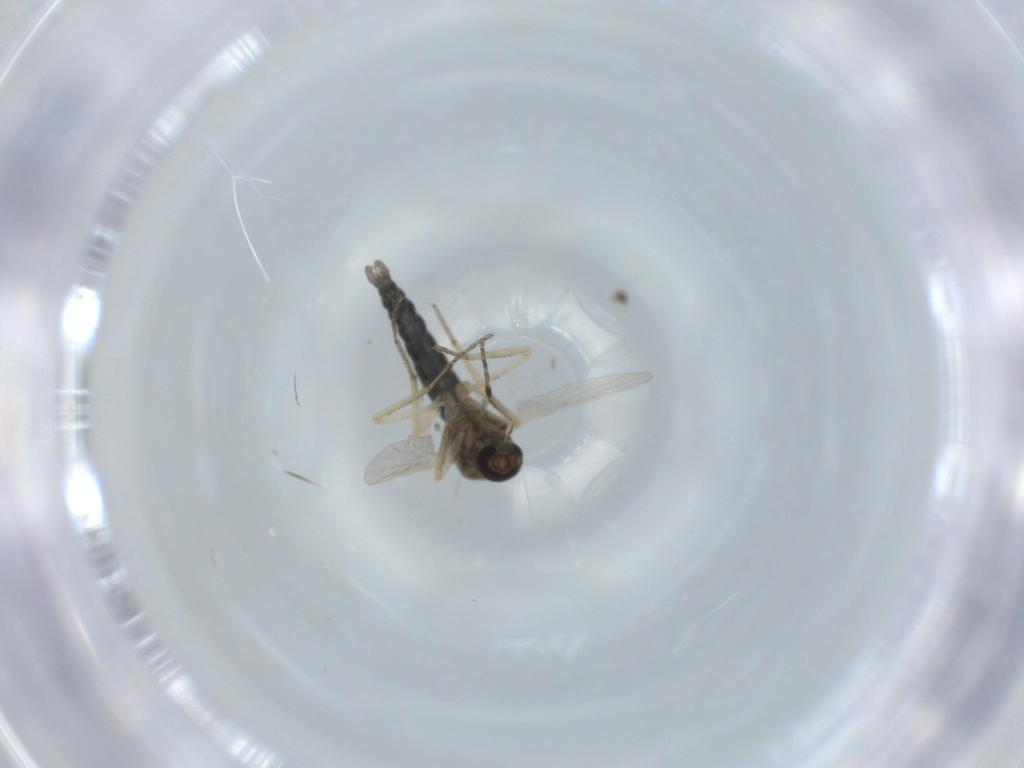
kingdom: Animalia
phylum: Arthropoda
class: Insecta
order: Diptera
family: Ceratopogonidae
